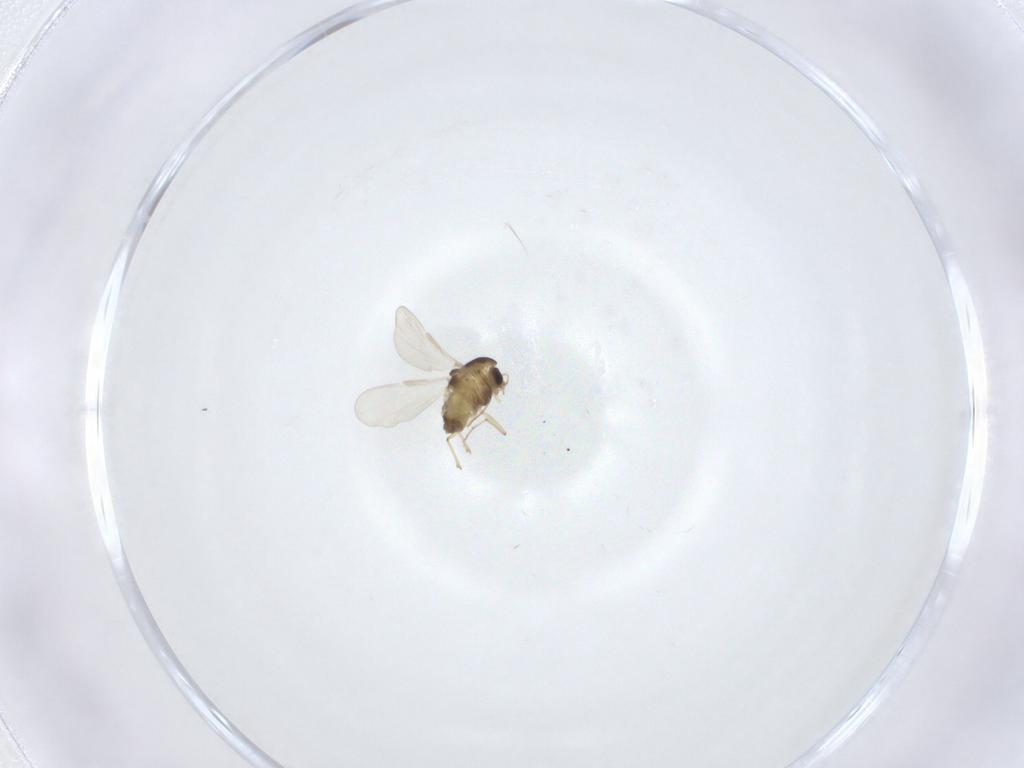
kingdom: Animalia
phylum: Arthropoda
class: Insecta
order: Diptera
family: Chironomidae
